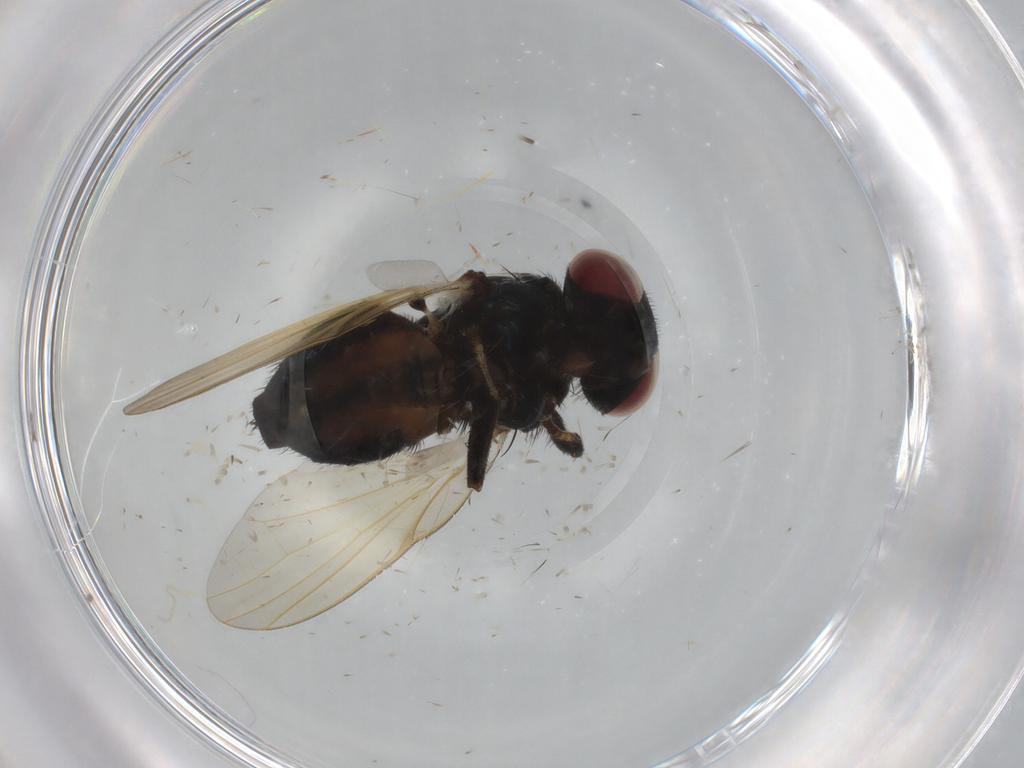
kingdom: Animalia
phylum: Arthropoda
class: Insecta
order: Diptera
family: Lonchaeidae
